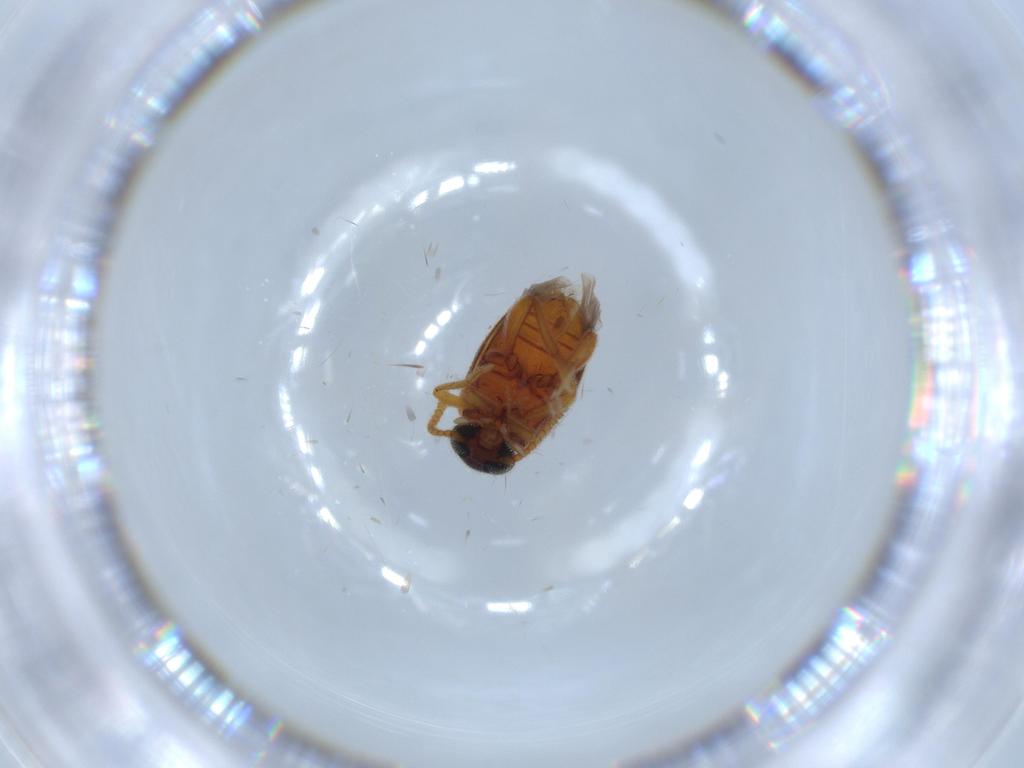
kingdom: Animalia
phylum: Arthropoda
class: Insecta
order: Coleoptera
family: Aderidae
